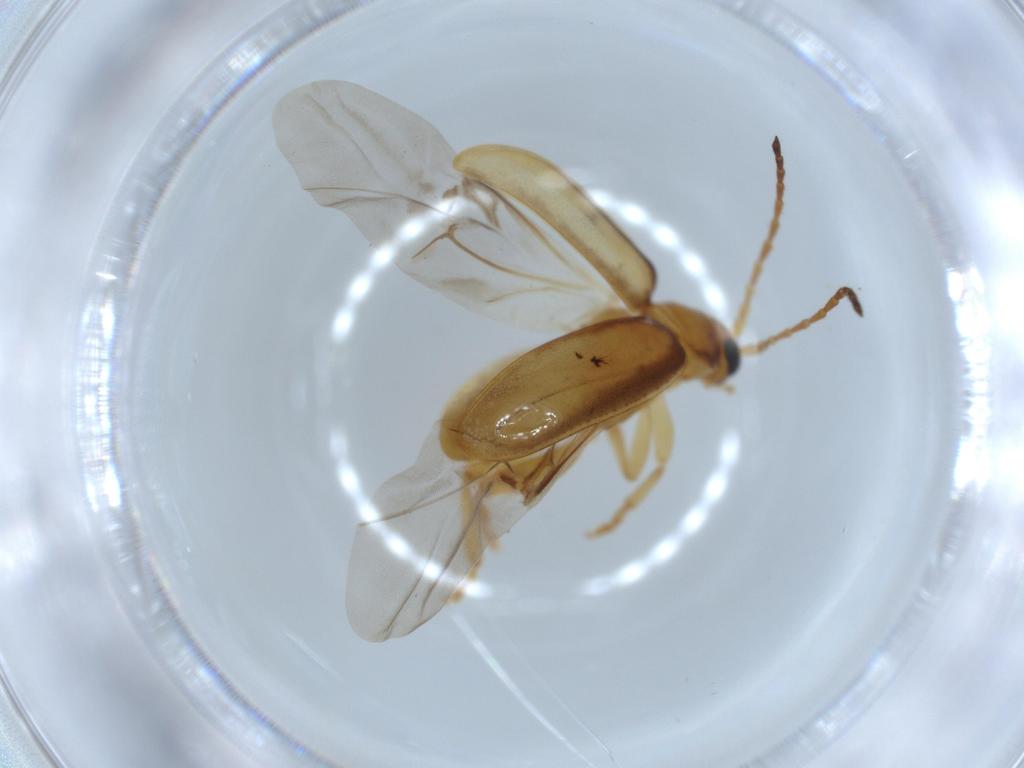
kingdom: Animalia
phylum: Arthropoda
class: Insecta
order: Coleoptera
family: Chrysomelidae
